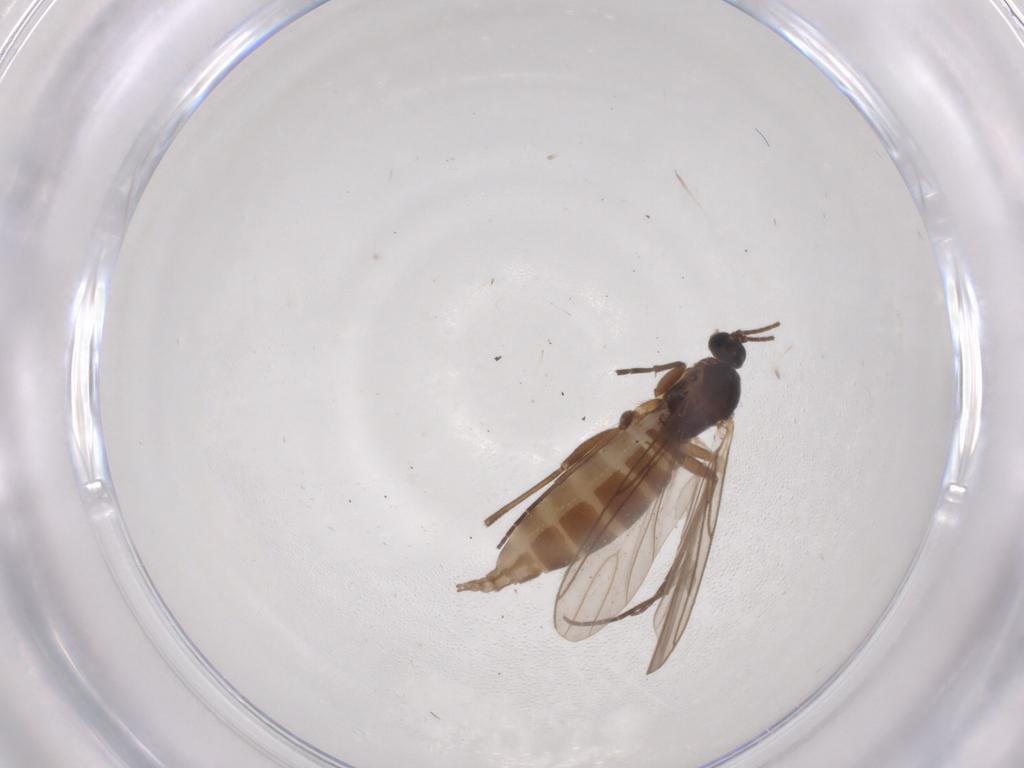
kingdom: Animalia
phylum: Arthropoda
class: Insecta
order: Diptera
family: Sciaridae
